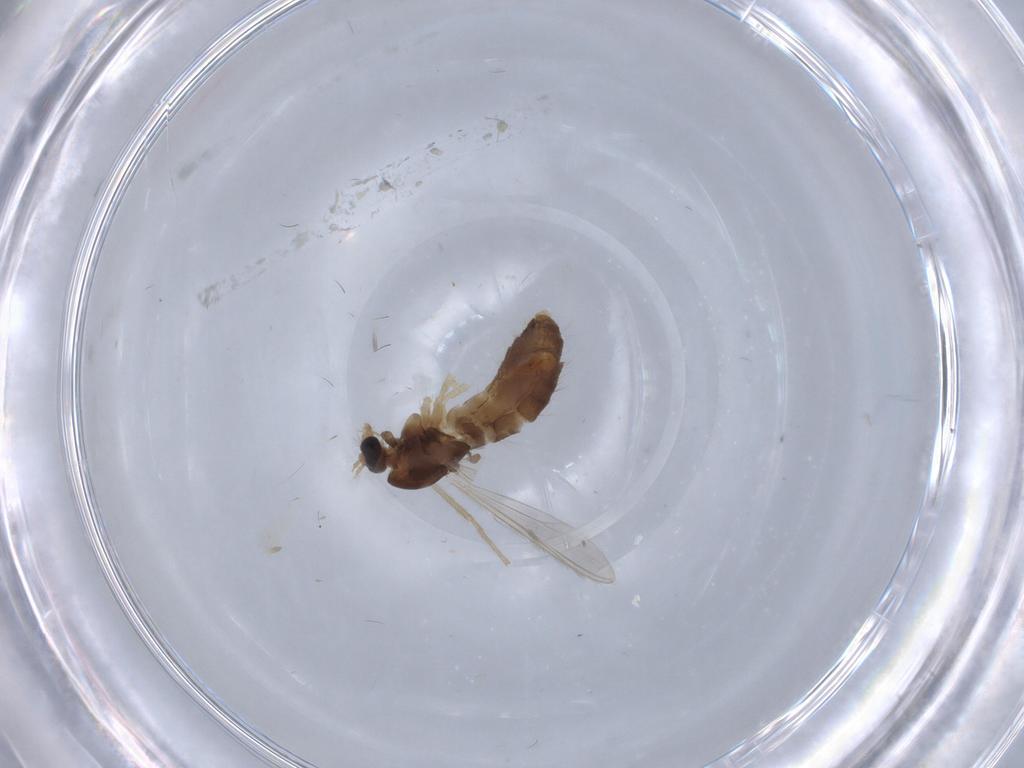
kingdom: Animalia
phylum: Arthropoda
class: Insecta
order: Diptera
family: Chironomidae
